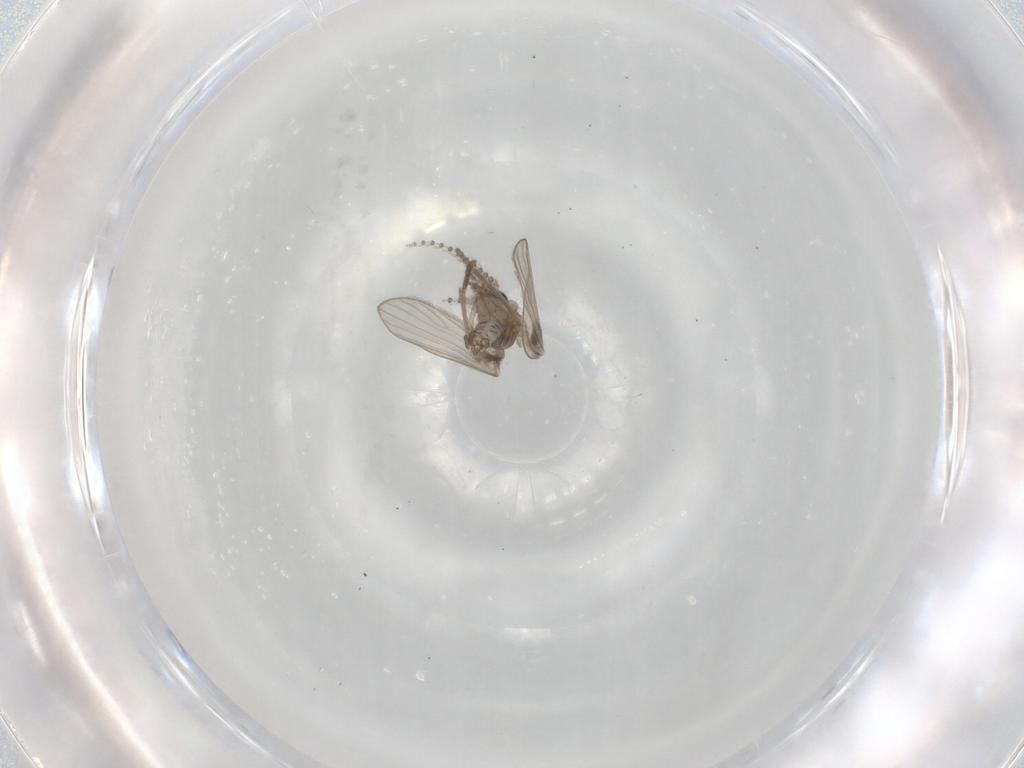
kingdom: Animalia
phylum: Arthropoda
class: Insecta
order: Diptera
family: Psychodidae
